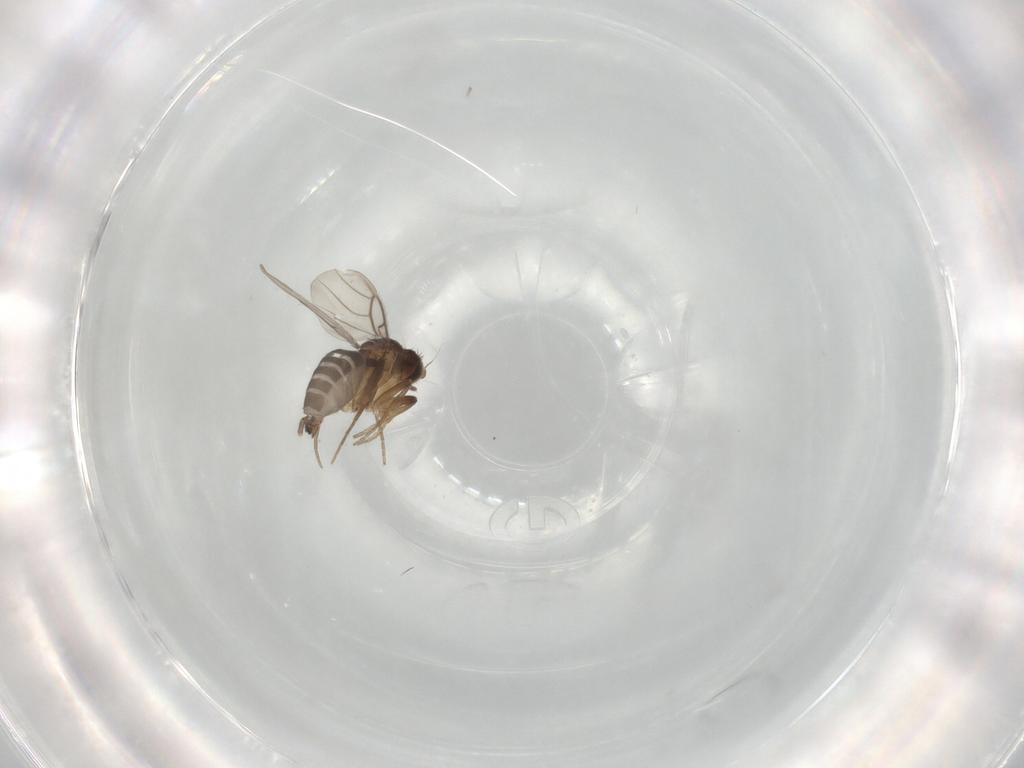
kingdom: Animalia
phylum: Arthropoda
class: Insecta
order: Diptera
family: Phoridae
